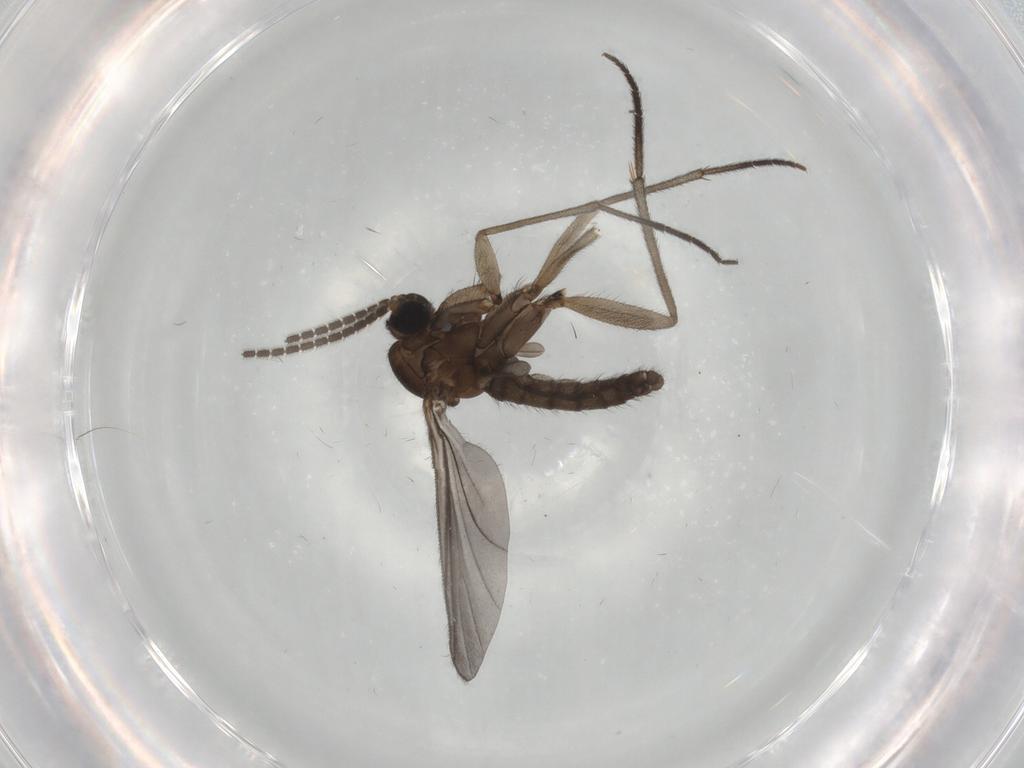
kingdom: Animalia
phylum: Arthropoda
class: Insecta
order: Diptera
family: Sciaridae
